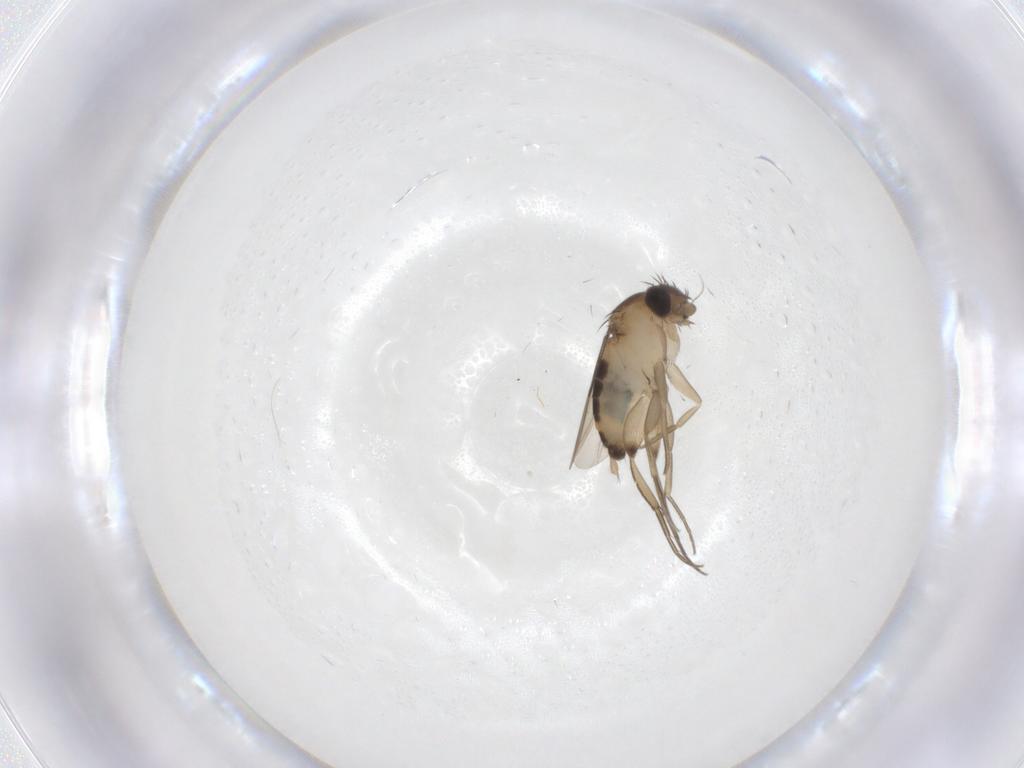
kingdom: Animalia
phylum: Arthropoda
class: Insecta
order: Diptera
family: Phoridae
